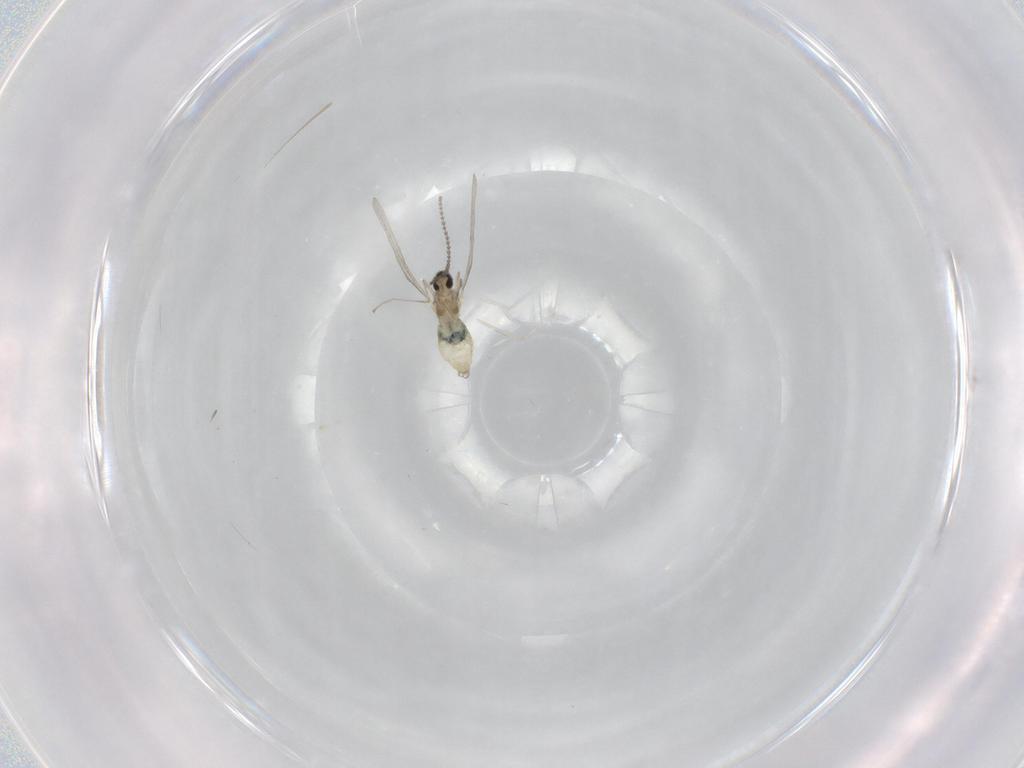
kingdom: Animalia
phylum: Arthropoda
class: Insecta
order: Diptera
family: Cecidomyiidae
